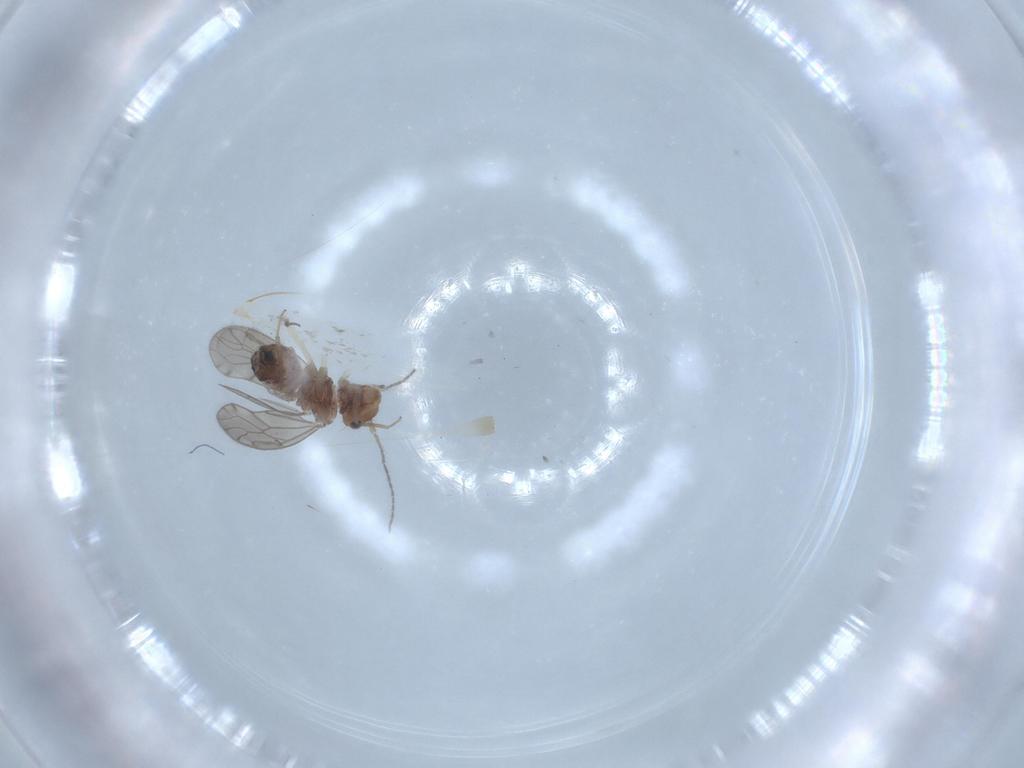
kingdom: Animalia
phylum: Arthropoda
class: Insecta
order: Psocodea
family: Ectopsocidae
